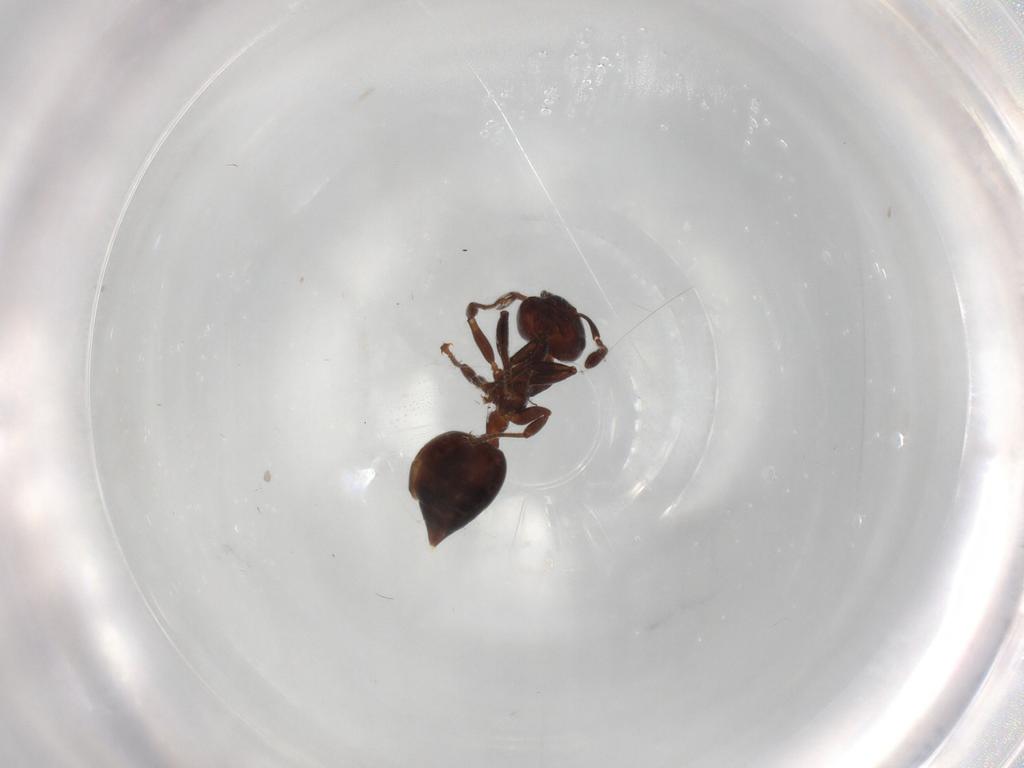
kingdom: Animalia
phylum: Arthropoda
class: Insecta
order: Hymenoptera
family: Formicidae
